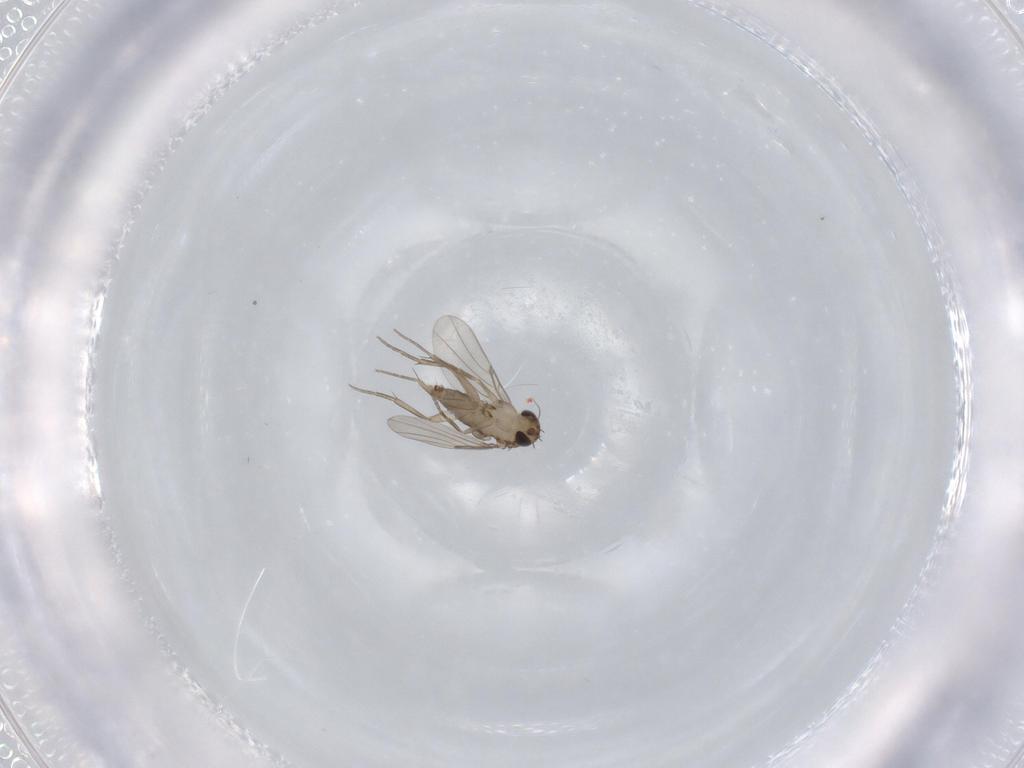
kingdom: Animalia
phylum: Arthropoda
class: Insecta
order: Diptera
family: Phoridae
